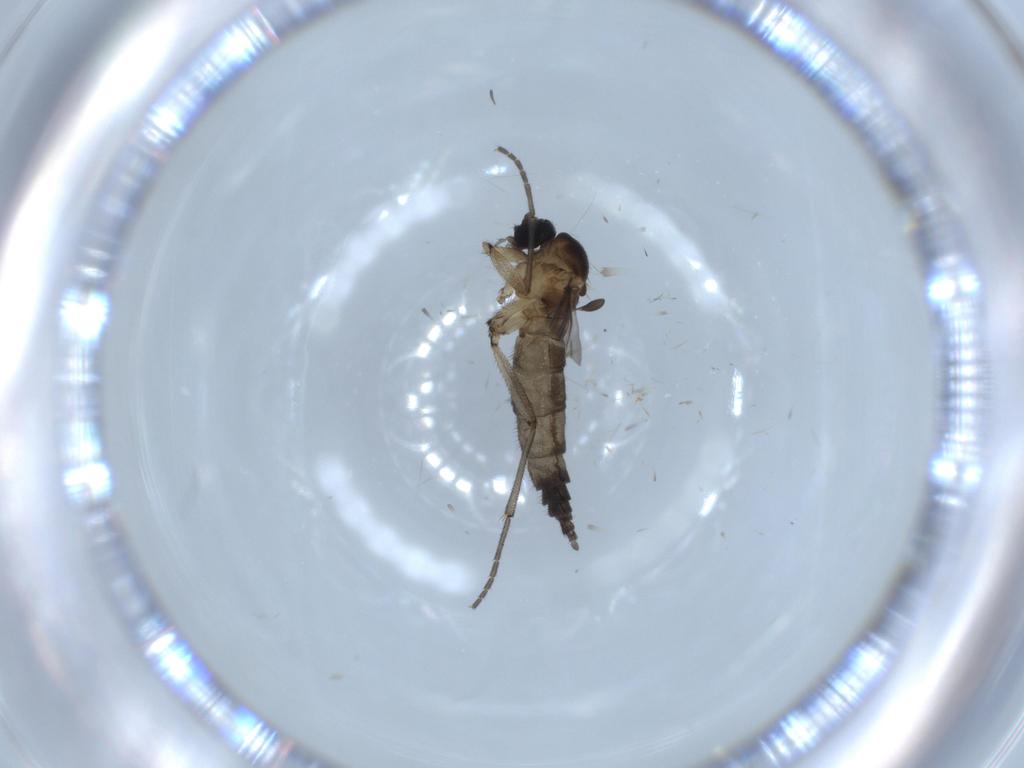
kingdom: Animalia
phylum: Arthropoda
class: Insecta
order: Diptera
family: Sciaridae
